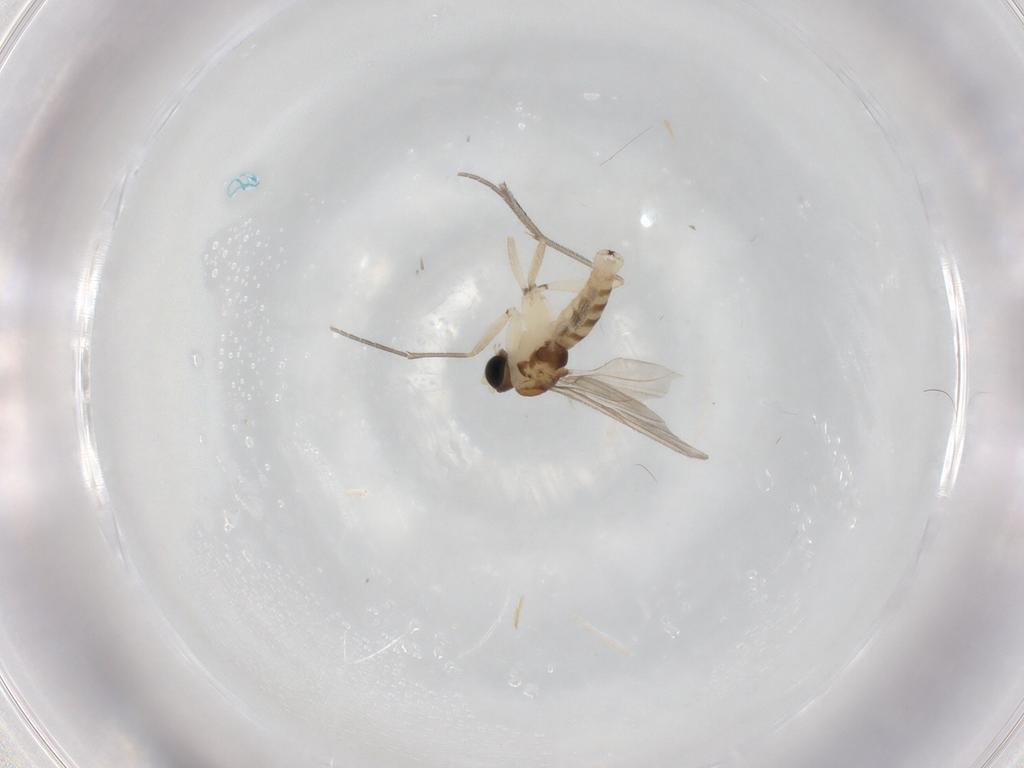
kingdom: Animalia
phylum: Arthropoda
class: Insecta
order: Diptera
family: Sciaridae
